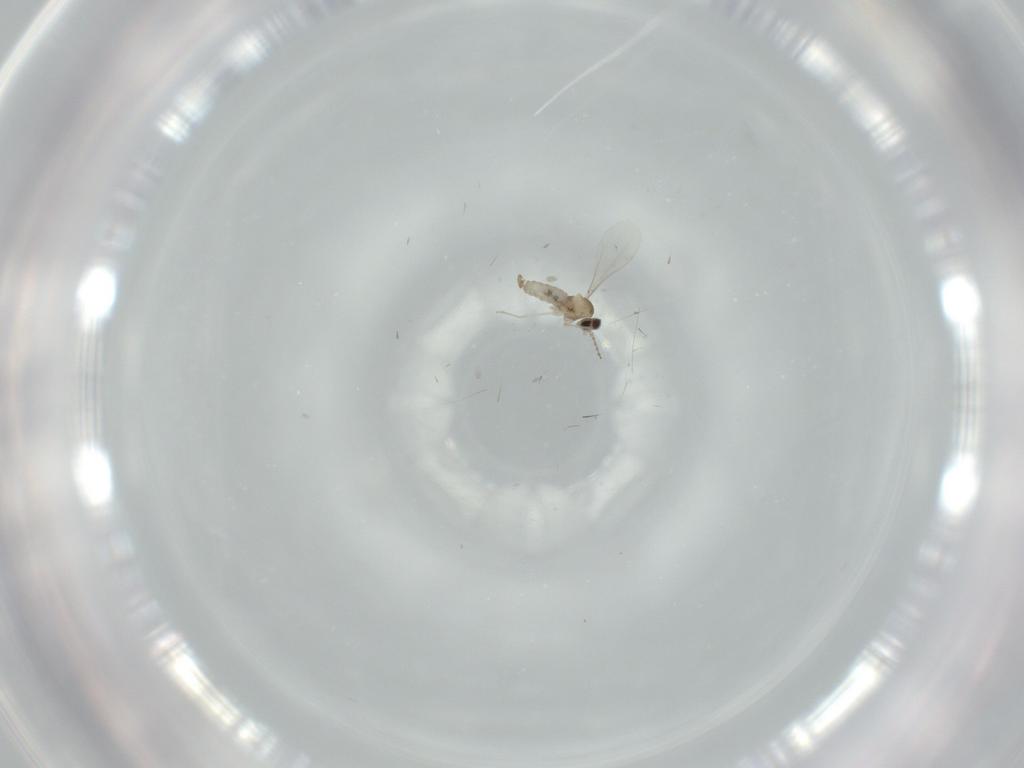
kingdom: Animalia
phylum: Arthropoda
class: Insecta
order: Diptera
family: Cecidomyiidae
